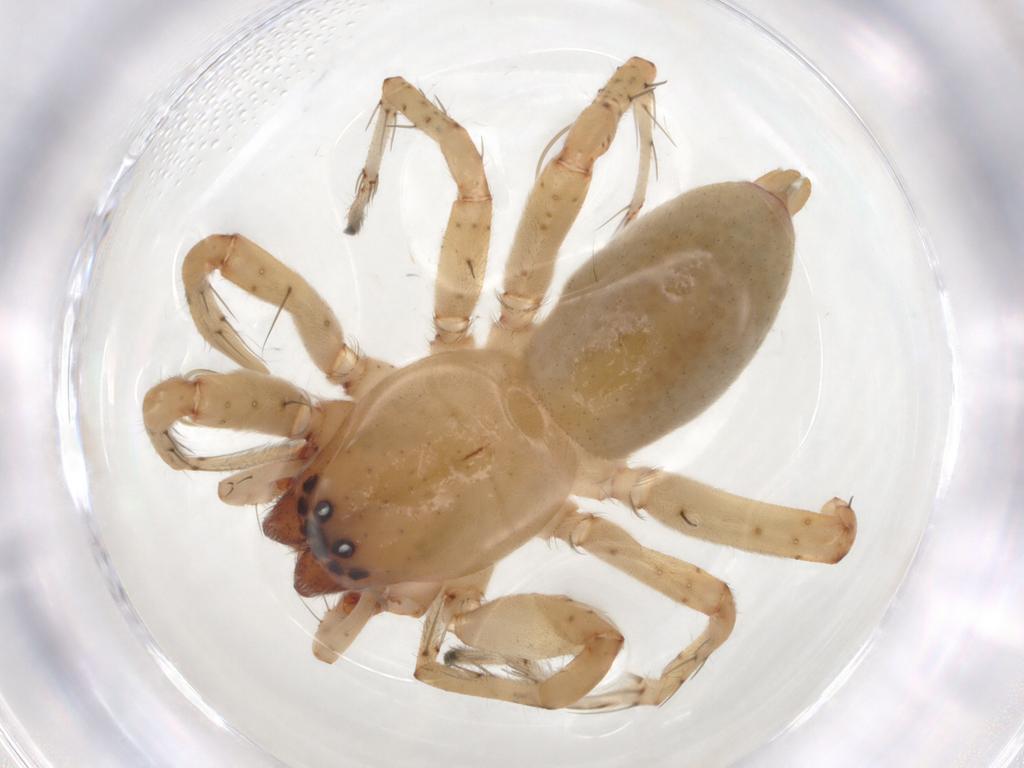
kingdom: Animalia
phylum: Arthropoda
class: Arachnida
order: Araneae
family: Clubionidae
